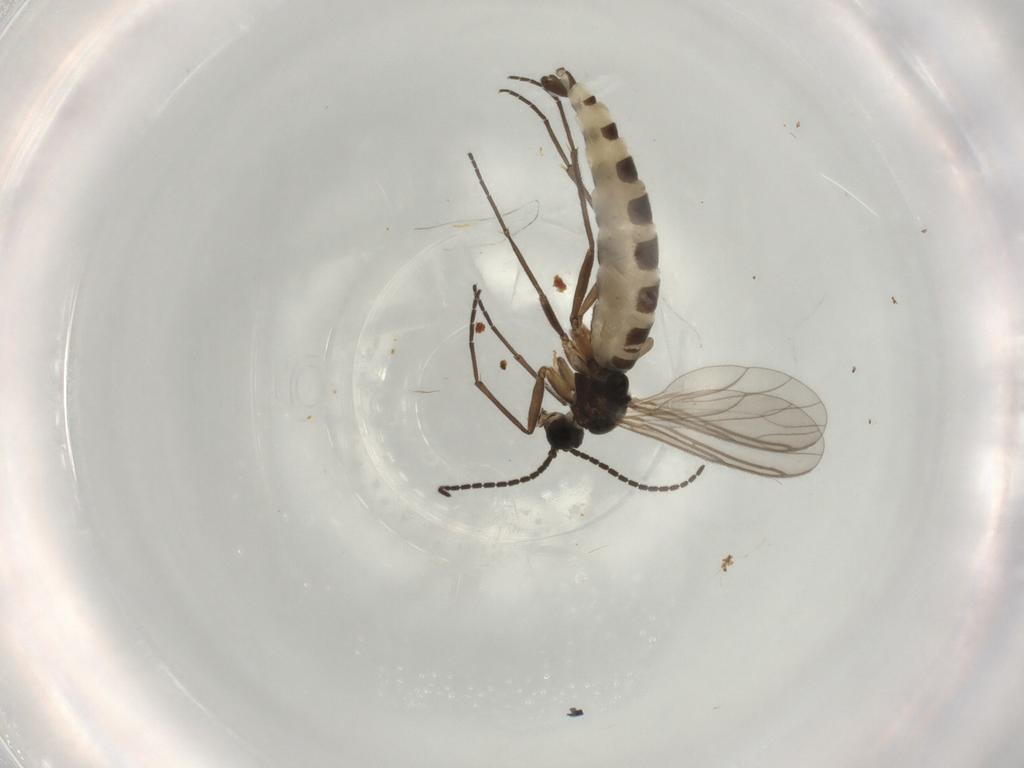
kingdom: Animalia
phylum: Arthropoda
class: Insecta
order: Diptera
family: Sciaridae
